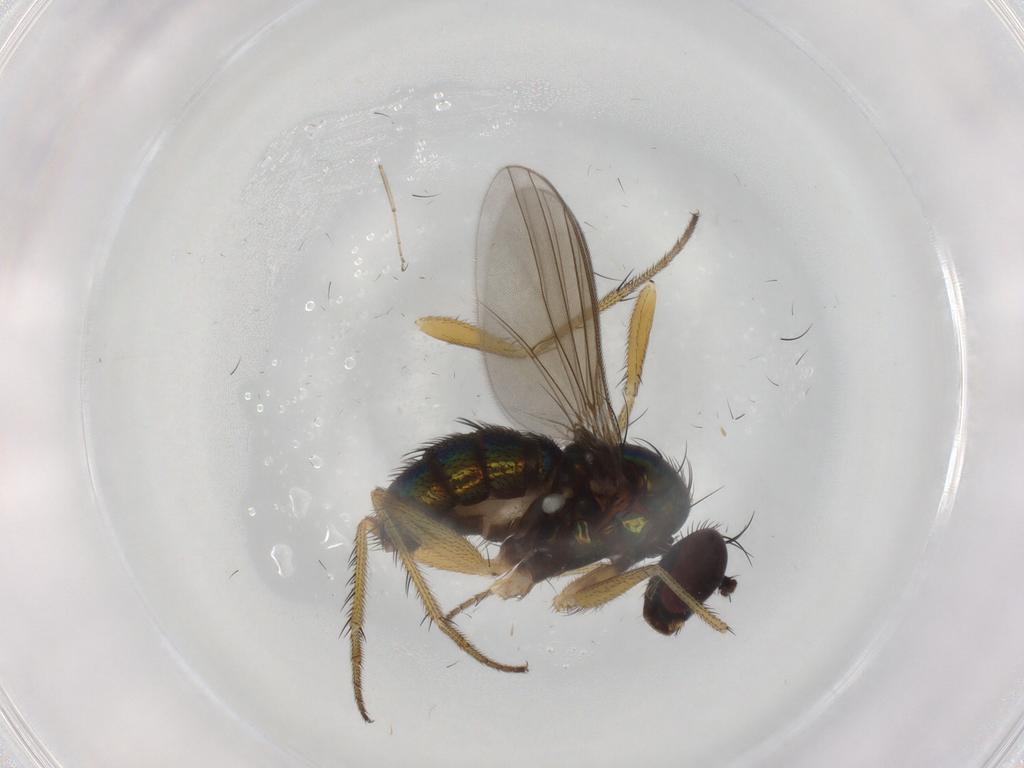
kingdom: Animalia
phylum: Arthropoda
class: Insecta
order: Diptera
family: Dolichopodidae
